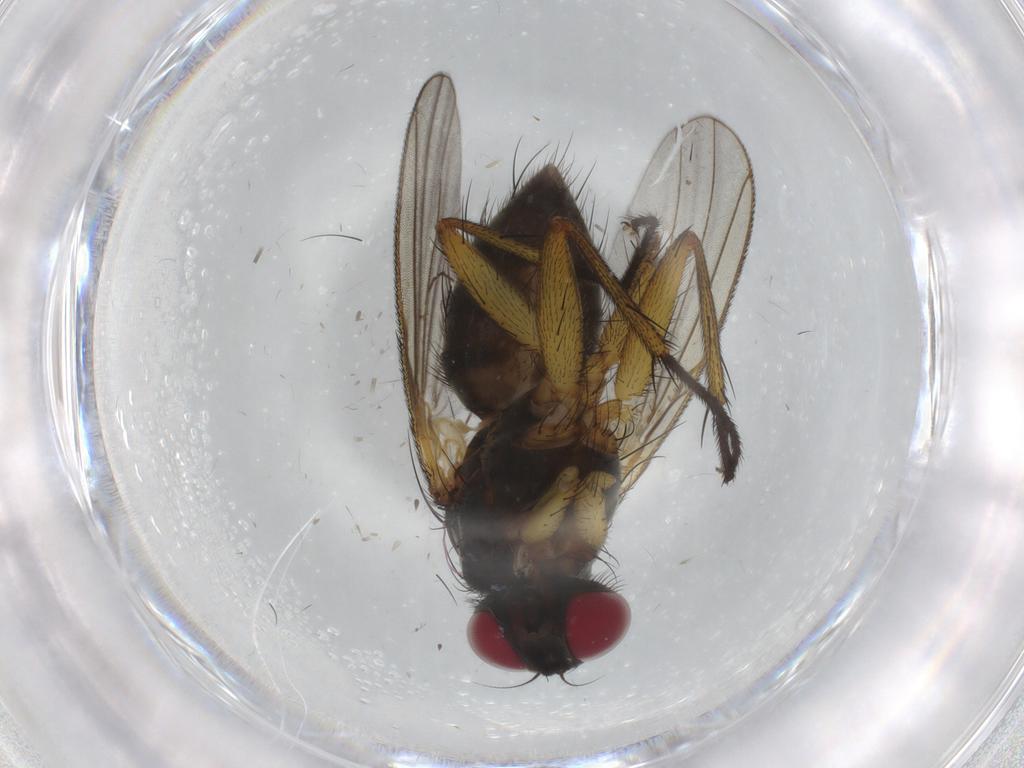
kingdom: Animalia
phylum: Arthropoda
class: Insecta
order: Diptera
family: Muscidae
